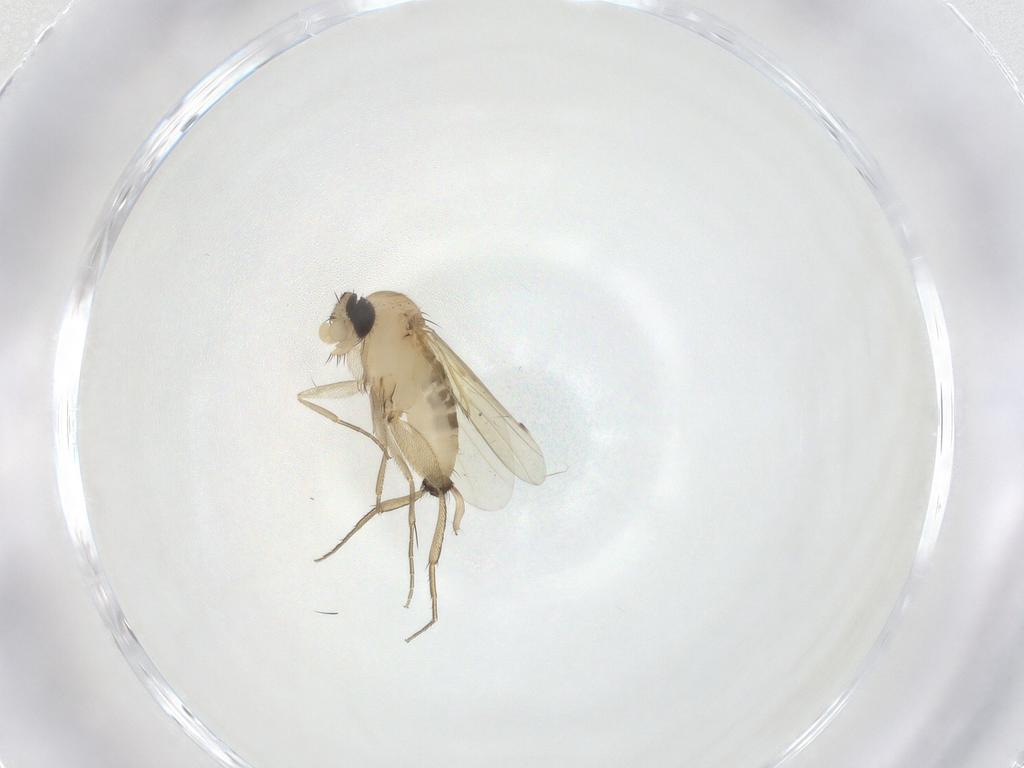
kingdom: Animalia
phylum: Arthropoda
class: Insecta
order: Diptera
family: Phoridae
